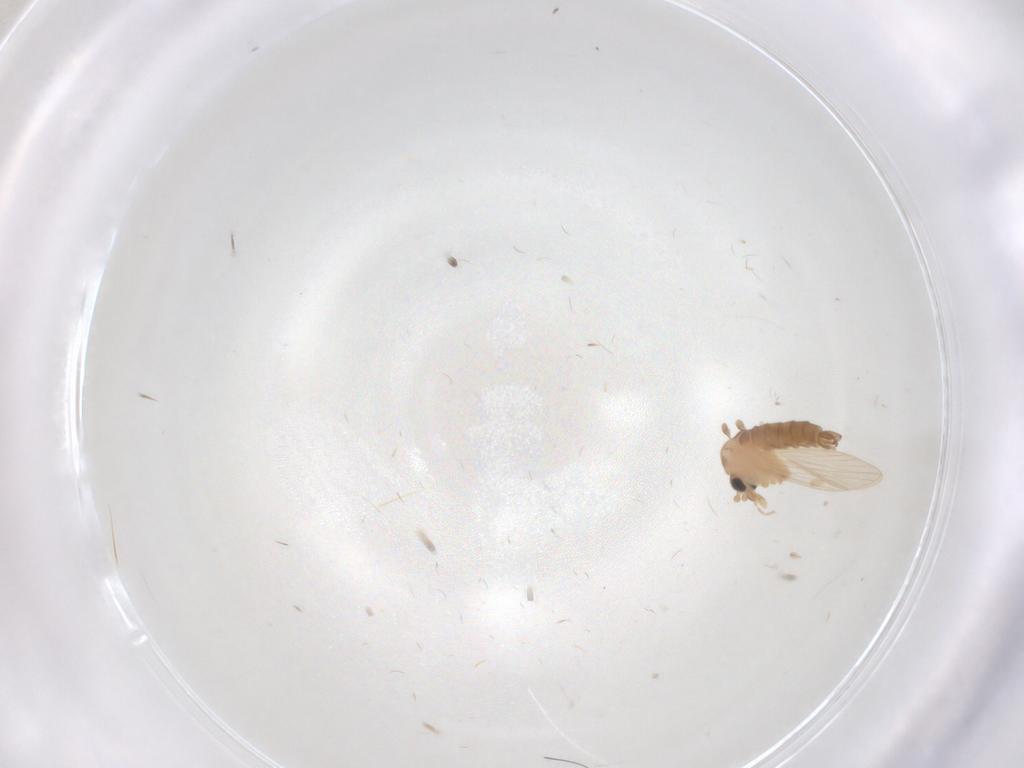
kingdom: Animalia
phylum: Arthropoda
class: Insecta
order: Diptera
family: Psychodidae
